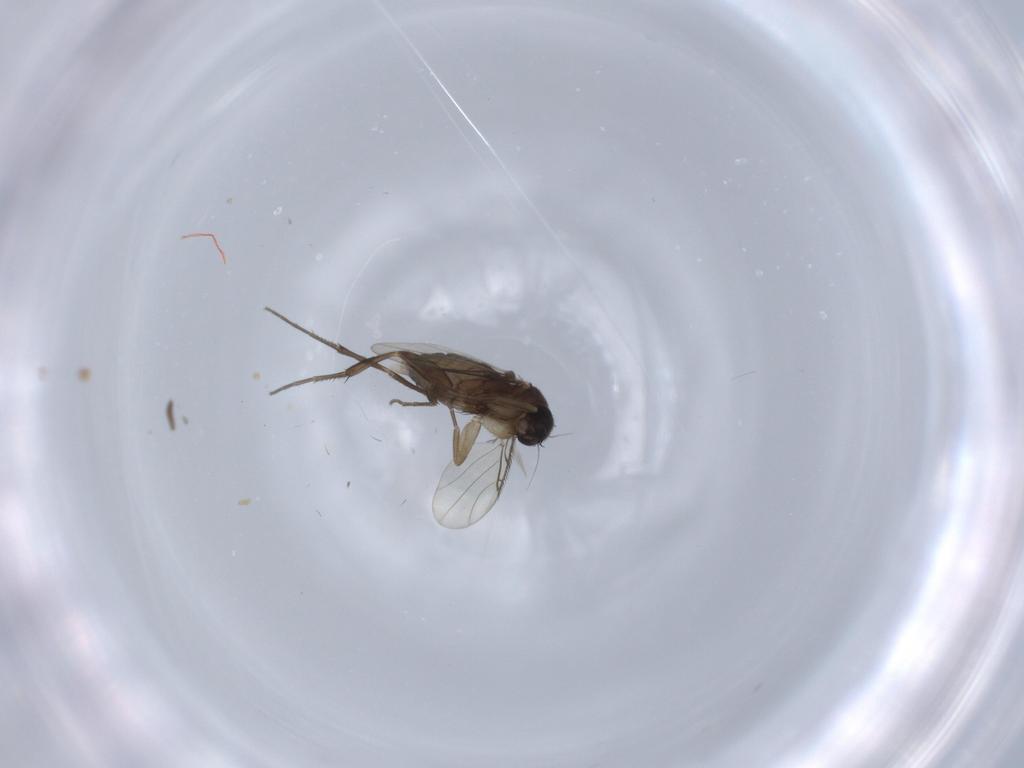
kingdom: Animalia
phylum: Arthropoda
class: Insecta
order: Diptera
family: Phoridae
